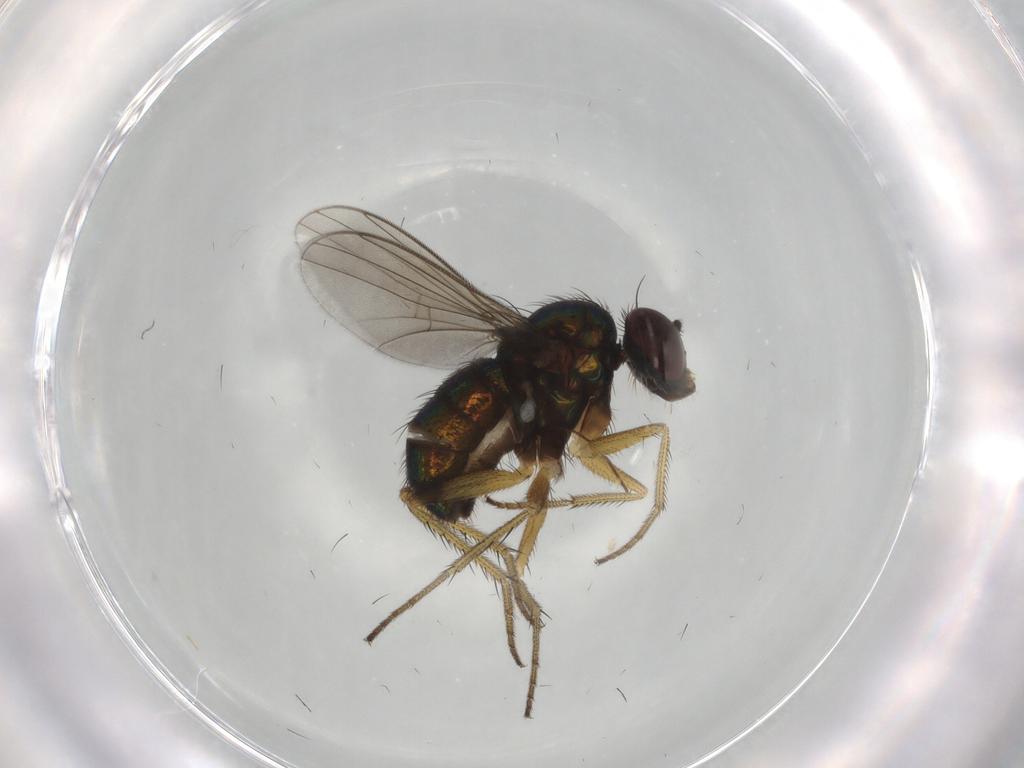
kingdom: Animalia
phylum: Arthropoda
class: Insecta
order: Diptera
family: Dolichopodidae
